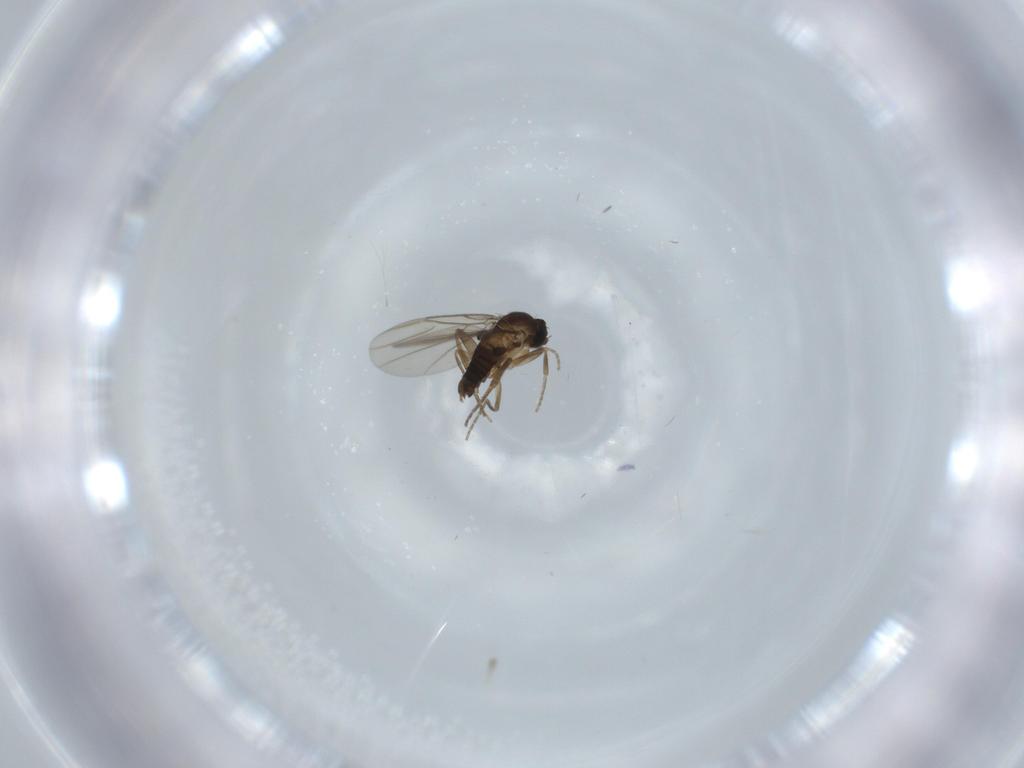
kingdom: Animalia
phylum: Arthropoda
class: Insecta
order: Diptera
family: Phoridae
